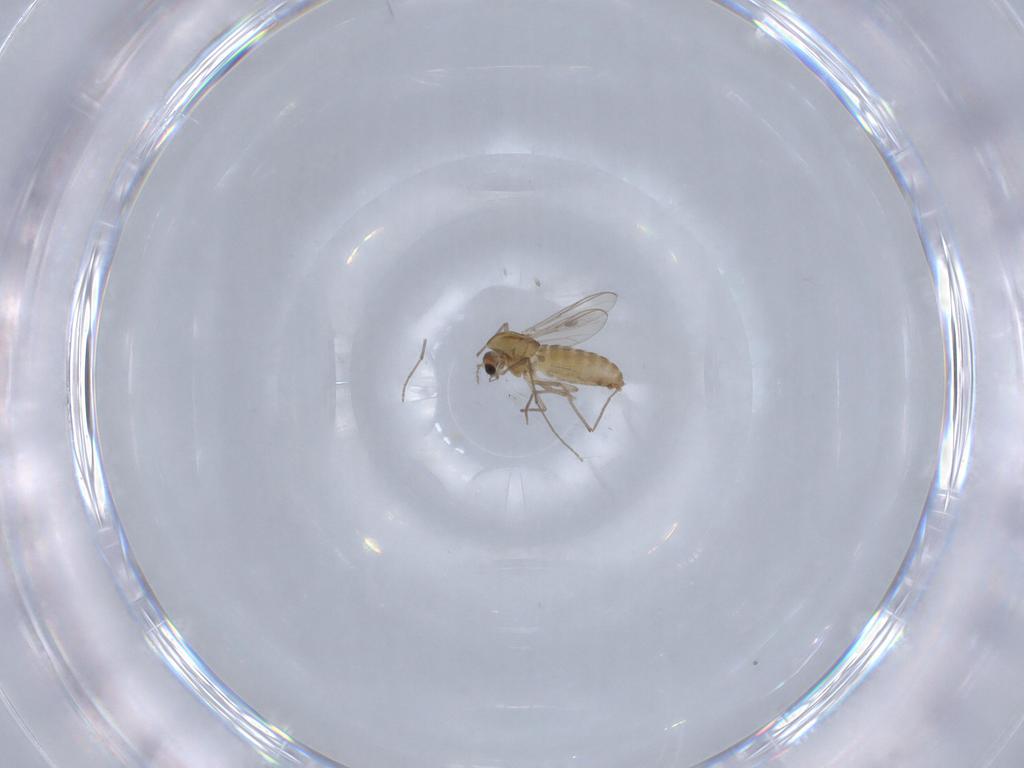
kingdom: Animalia
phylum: Arthropoda
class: Insecta
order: Diptera
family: Chironomidae
